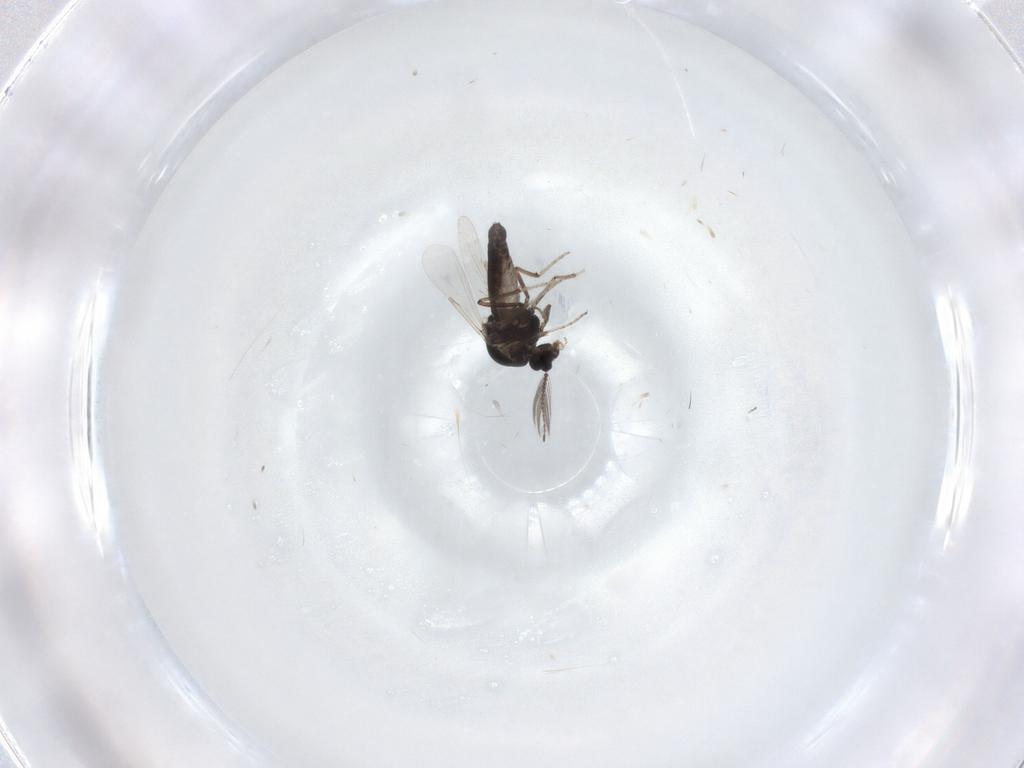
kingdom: Animalia
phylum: Arthropoda
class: Insecta
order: Diptera
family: Ceratopogonidae
